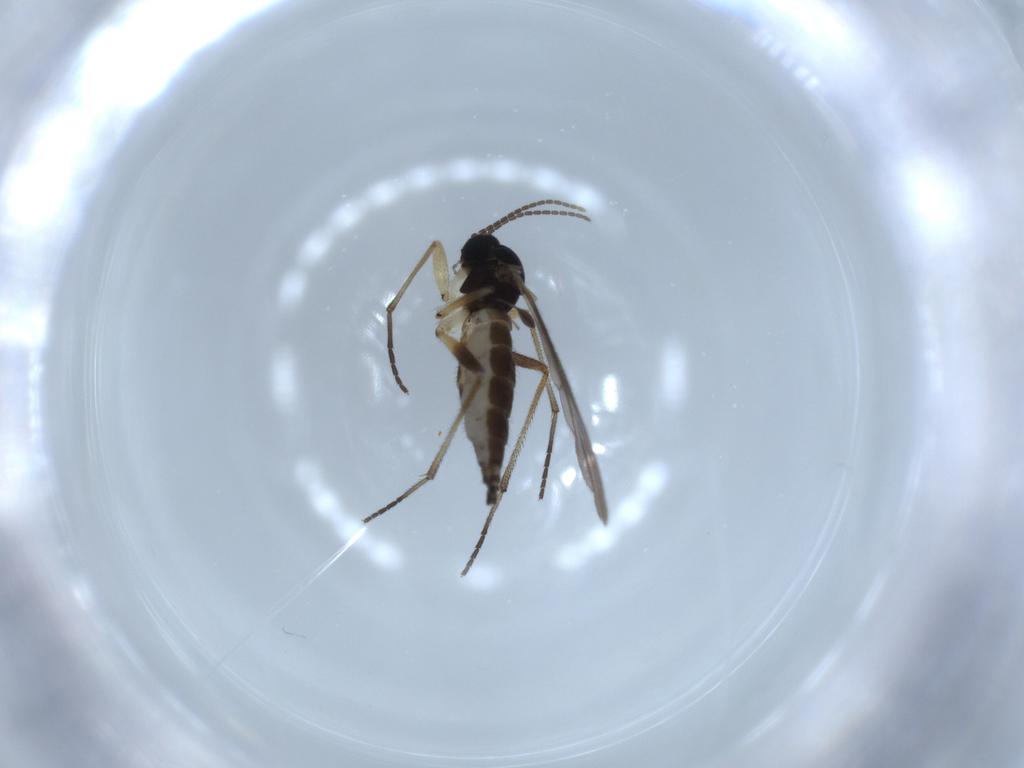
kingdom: Animalia
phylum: Arthropoda
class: Insecta
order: Diptera
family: Sciaridae
